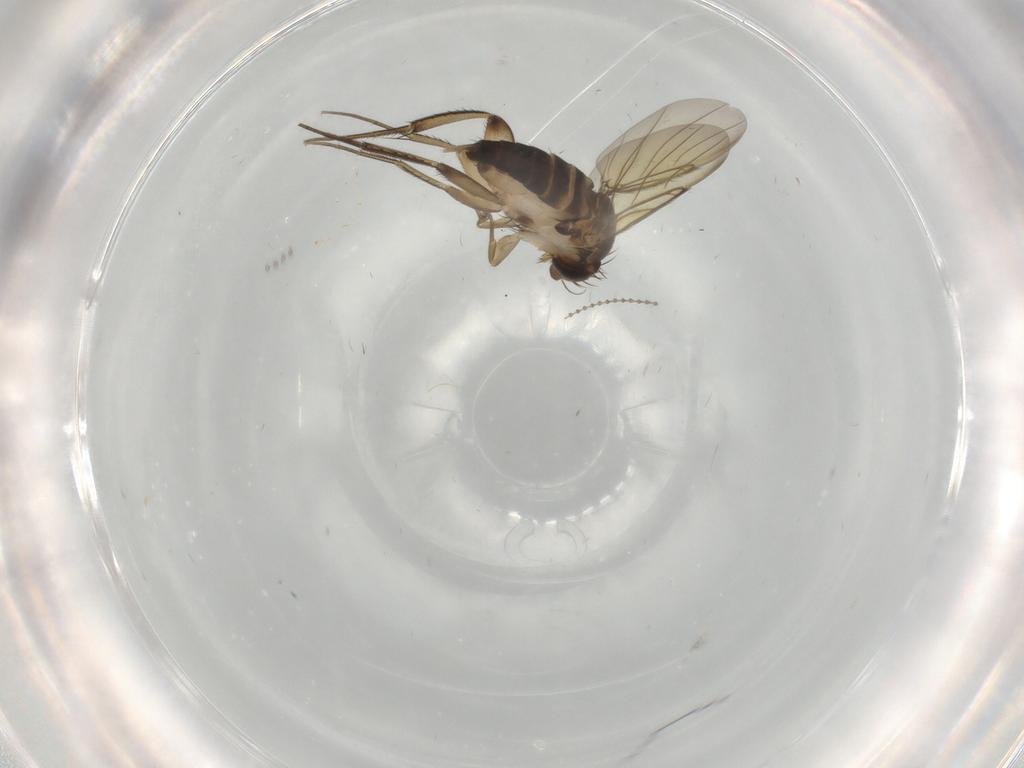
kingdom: Animalia
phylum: Arthropoda
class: Insecta
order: Diptera
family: Phoridae
